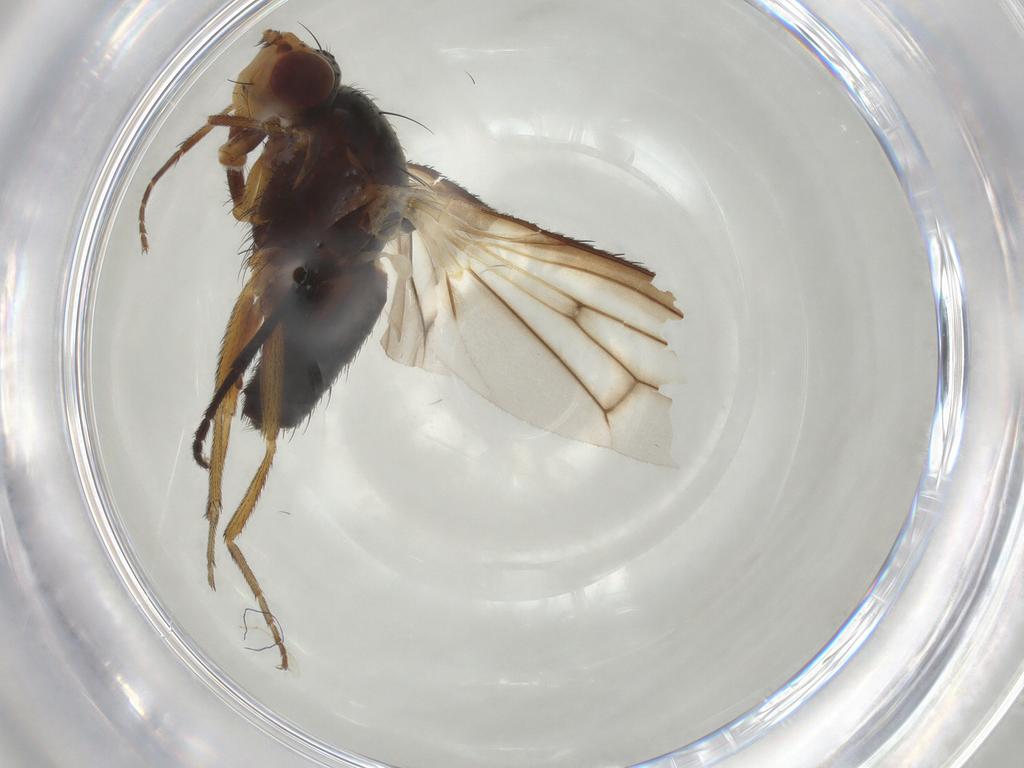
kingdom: Animalia
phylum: Arthropoda
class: Insecta
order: Diptera
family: Heleomyzidae
